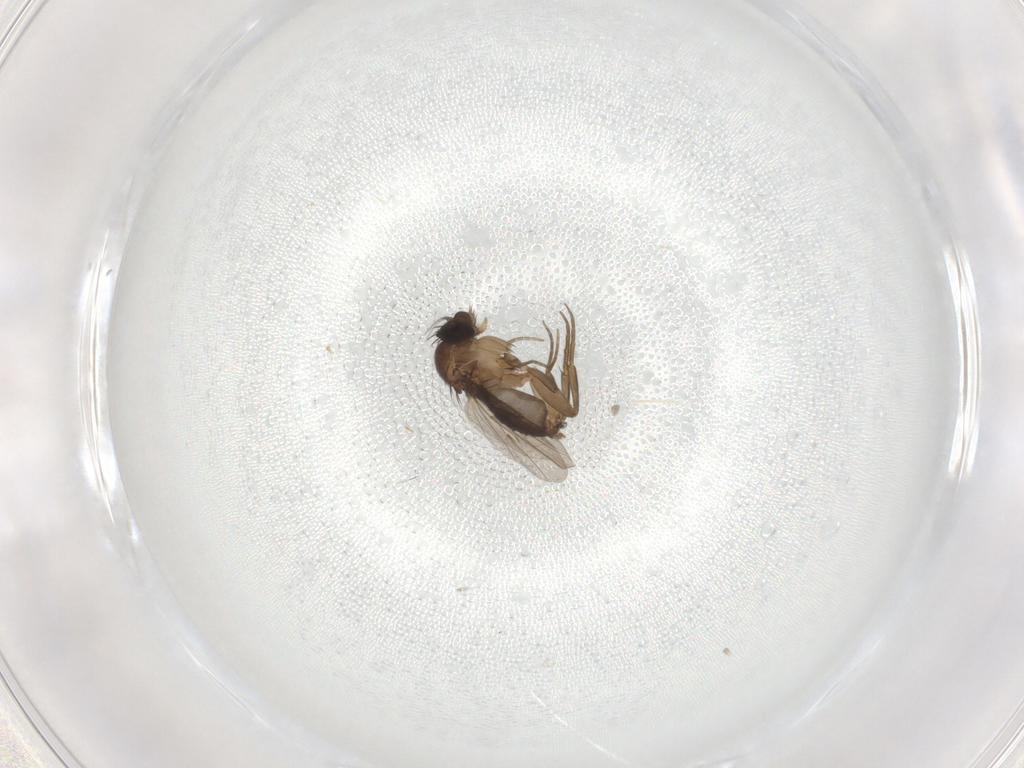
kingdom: Animalia
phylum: Arthropoda
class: Insecta
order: Diptera
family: Phoridae
